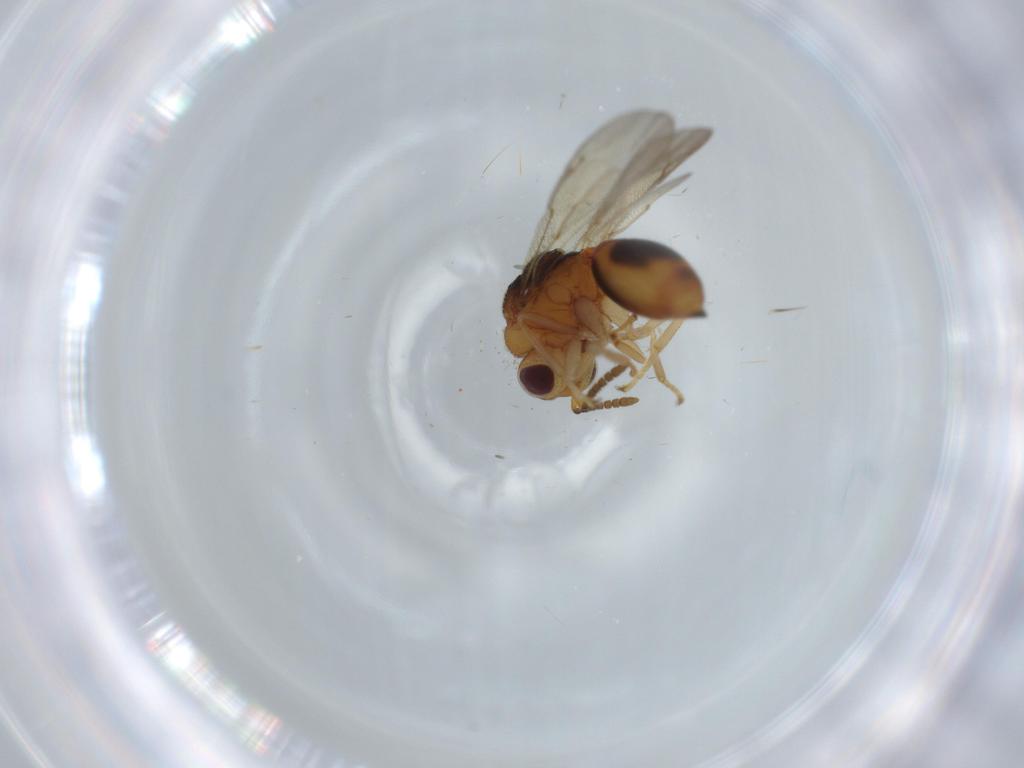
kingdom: Animalia
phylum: Arthropoda
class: Insecta
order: Hymenoptera
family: Eurytomidae
